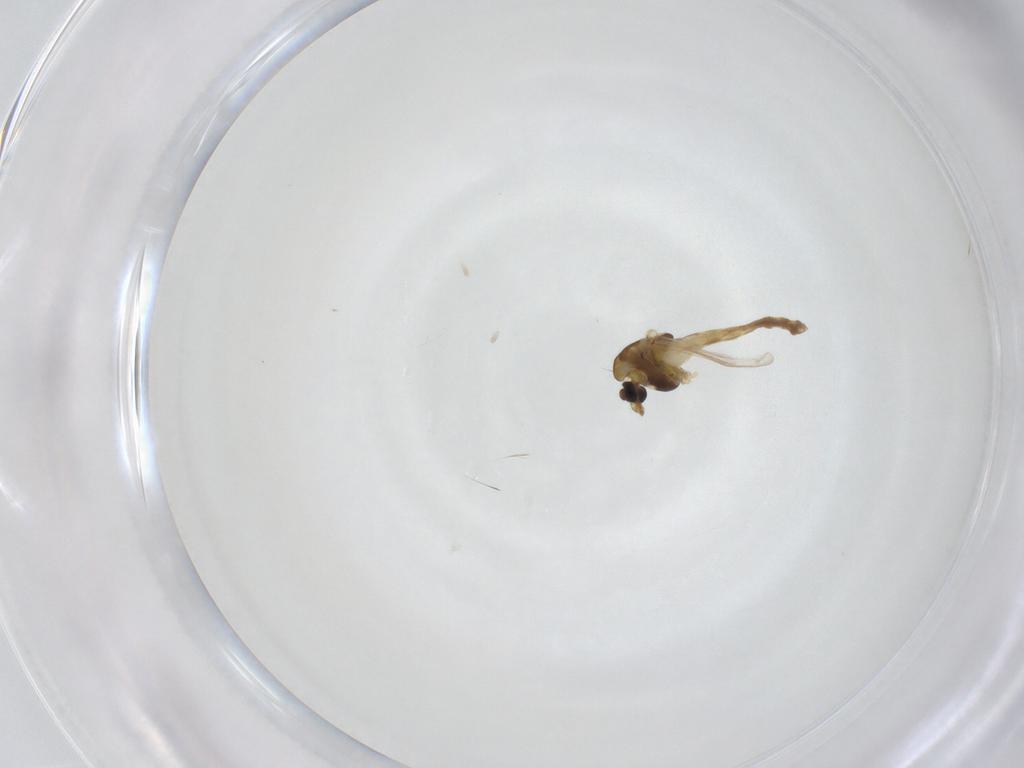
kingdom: Animalia
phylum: Arthropoda
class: Insecta
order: Diptera
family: Chironomidae
